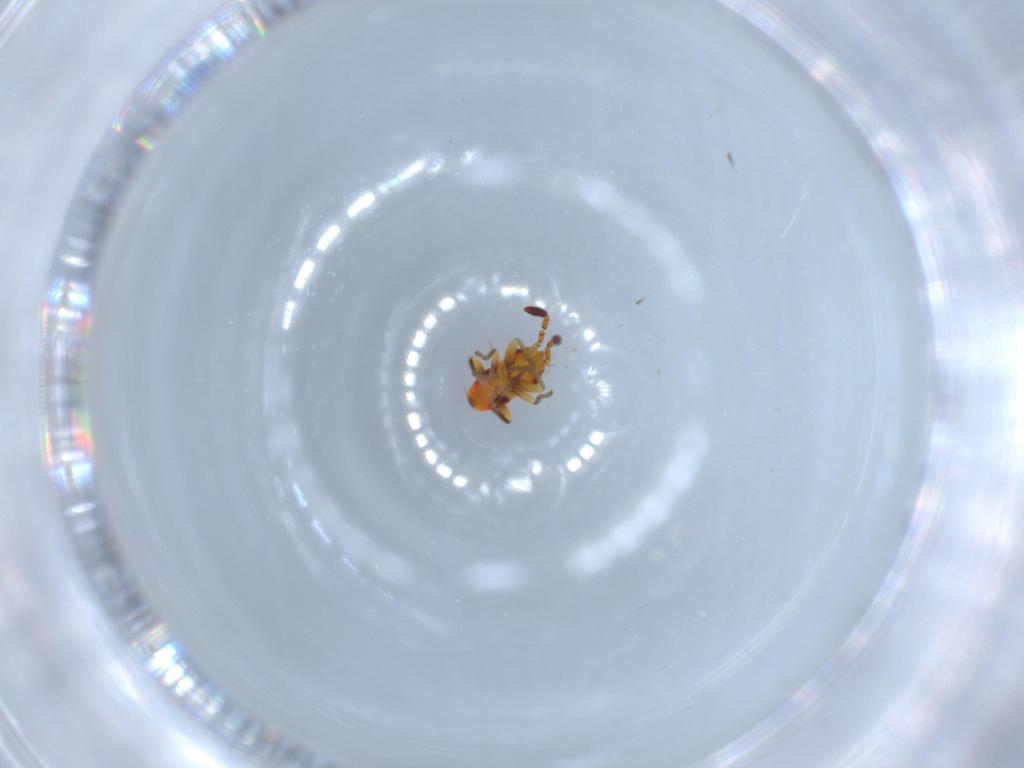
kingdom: Animalia
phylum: Arthropoda
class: Insecta
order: Hemiptera
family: Rhyparochromidae
